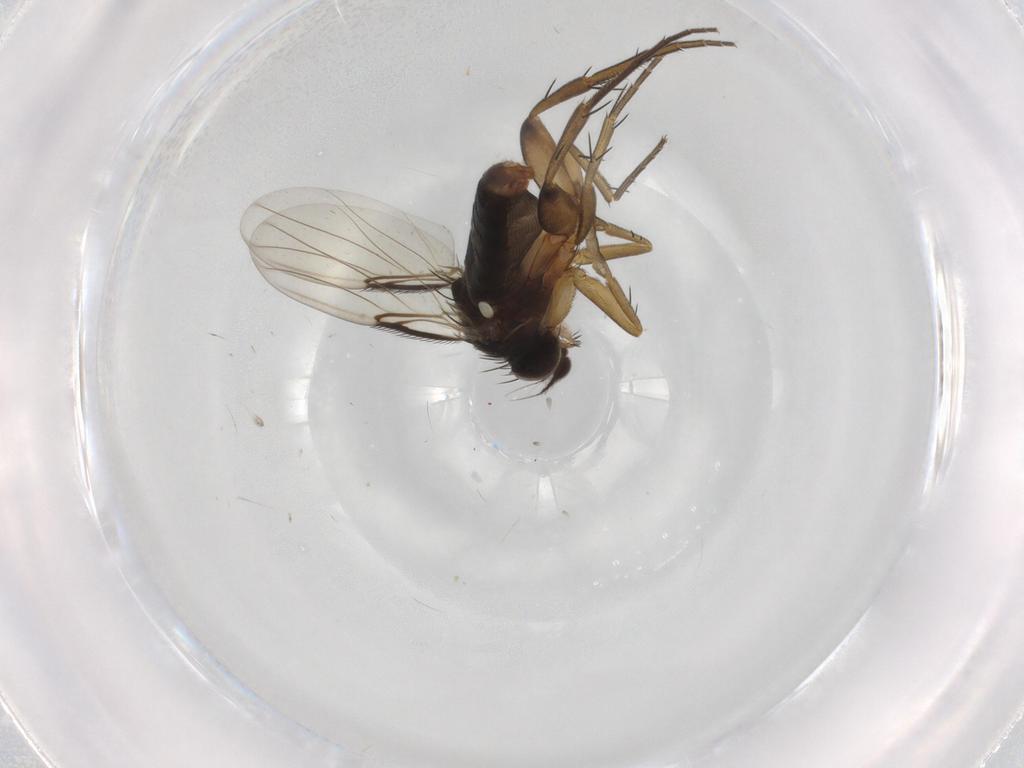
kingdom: Animalia
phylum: Arthropoda
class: Insecta
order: Diptera
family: Phoridae
